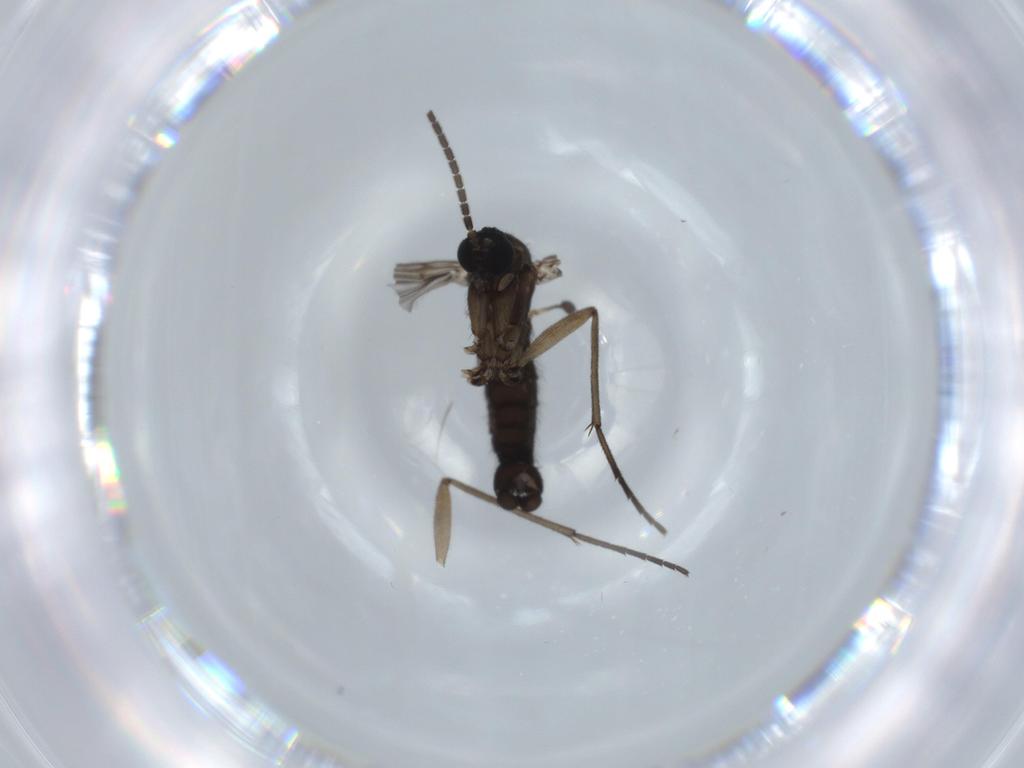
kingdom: Animalia
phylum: Arthropoda
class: Insecta
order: Diptera
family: Sciaridae
